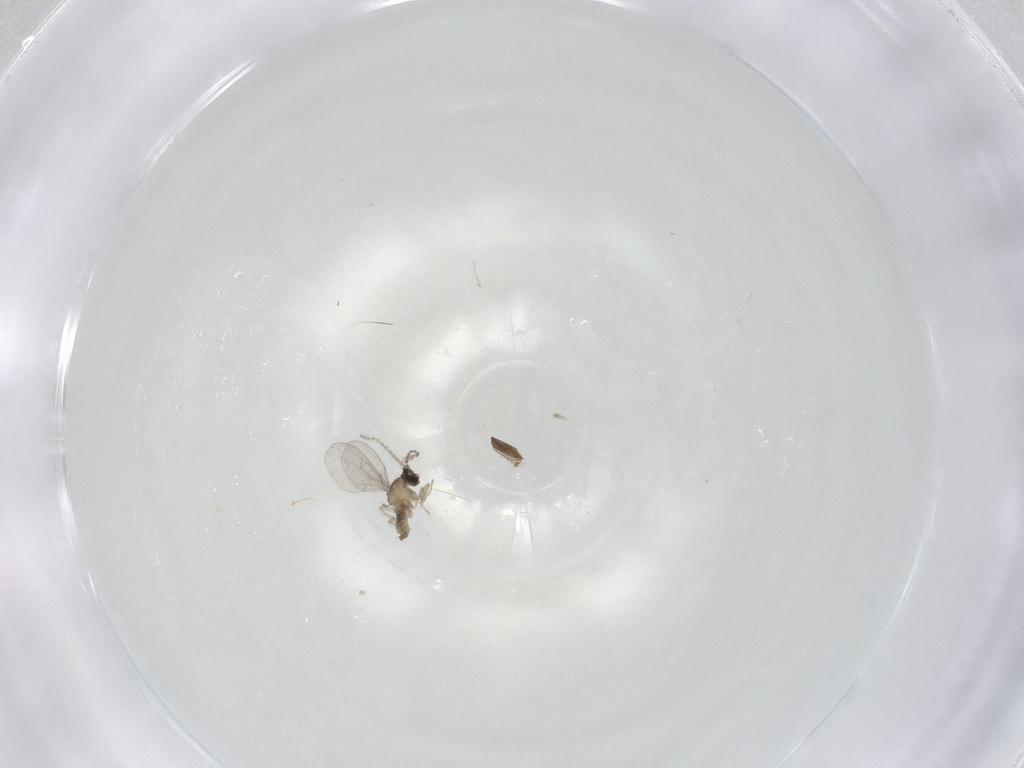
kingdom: Animalia
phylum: Arthropoda
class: Insecta
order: Diptera
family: Cecidomyiidae
